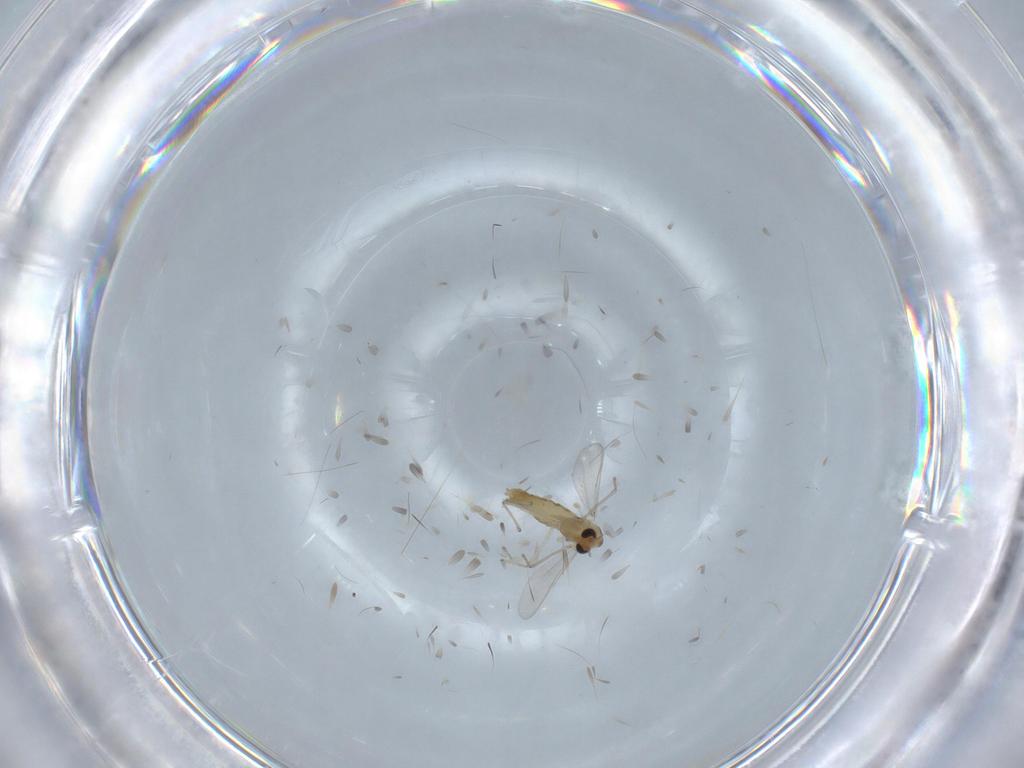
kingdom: Animalia
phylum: Arthropoda
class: Insecta
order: Diptera
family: Chironomidae
